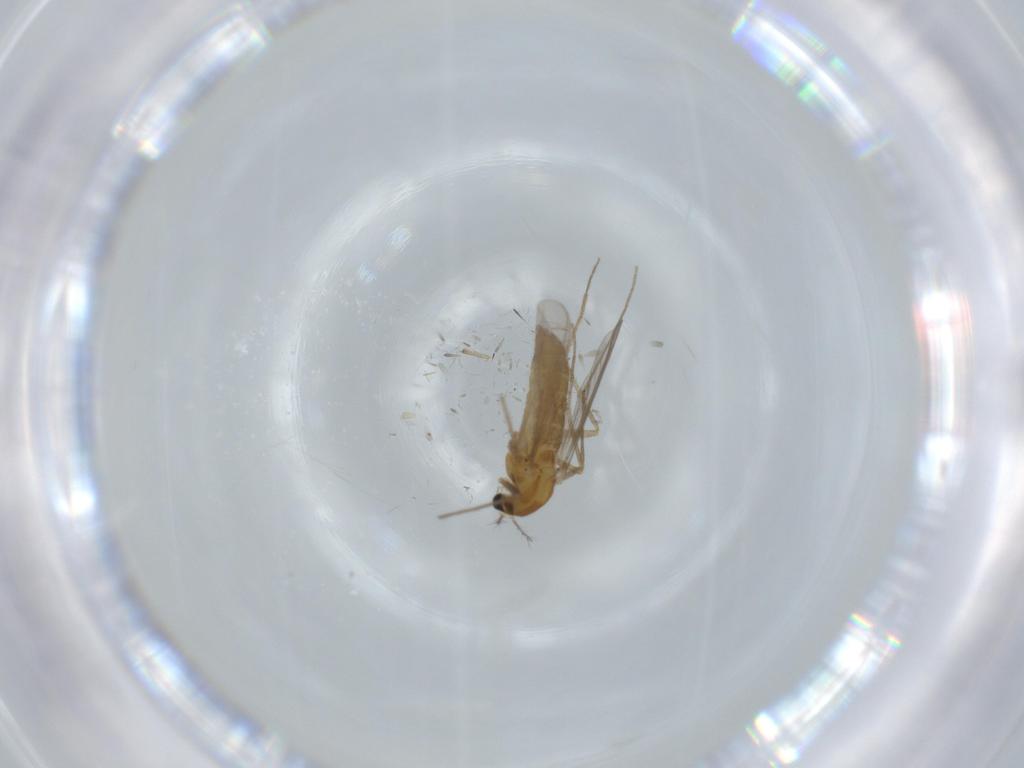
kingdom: Animalia
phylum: Arthropoda
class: Insecta
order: Diptera
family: Chironomidae
